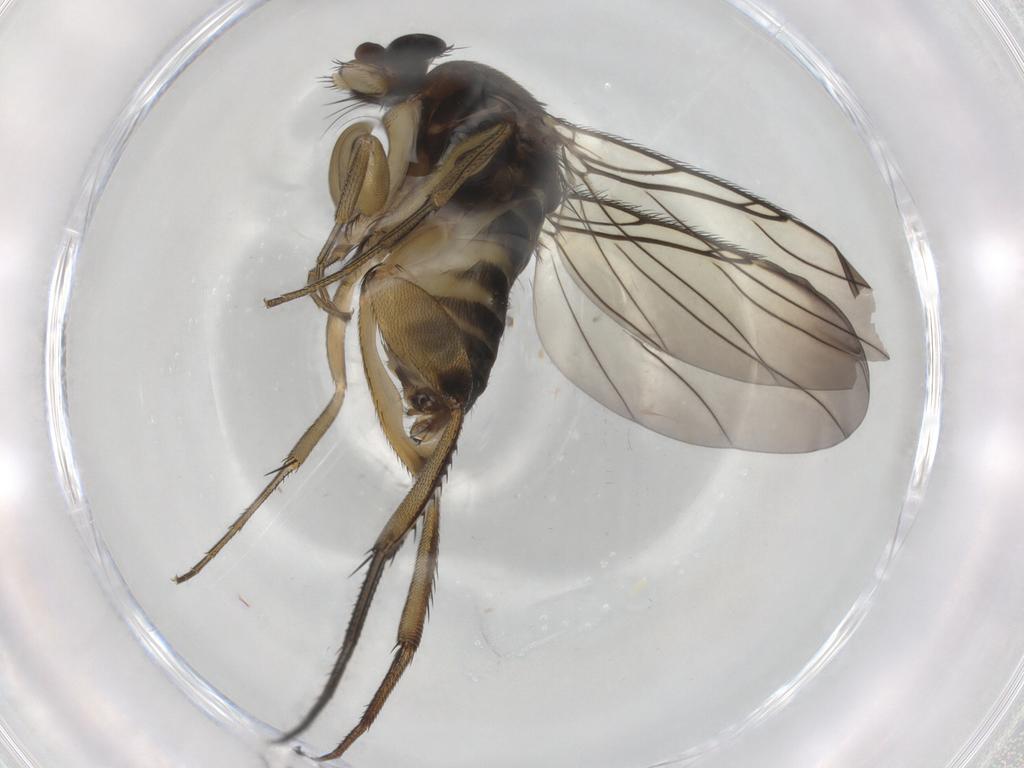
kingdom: Animalia
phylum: Arthropoda
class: Insecta
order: Diptera
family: Phoridae
